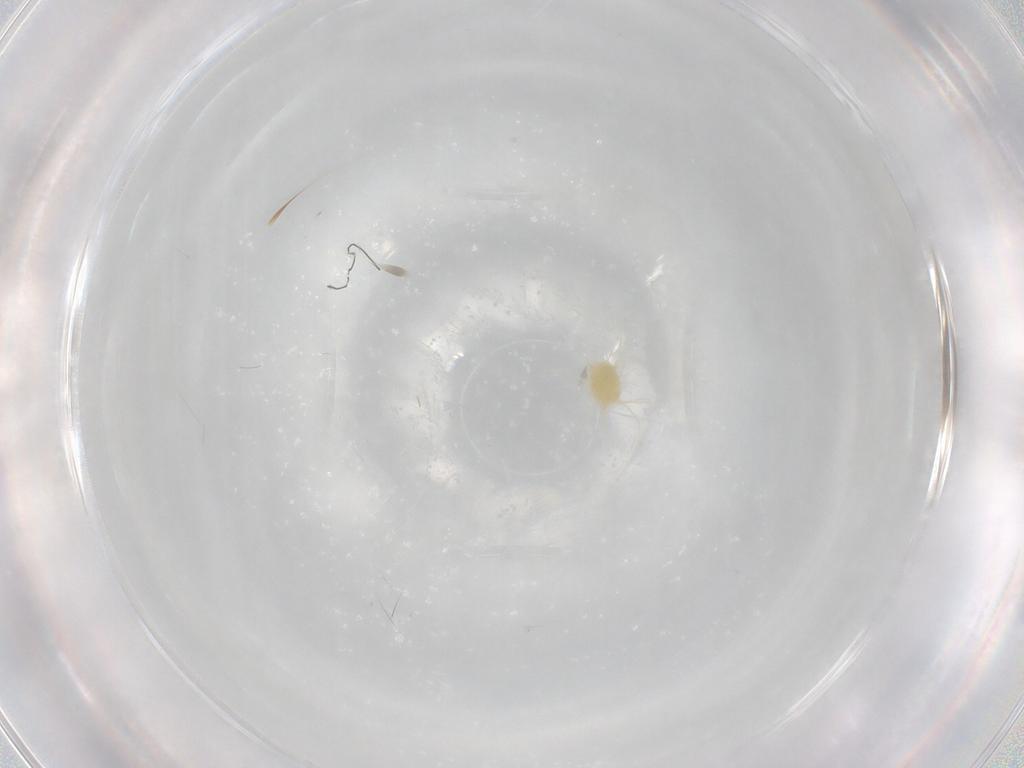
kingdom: Animalia
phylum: Arthropoda
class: Arachnida
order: Trombidiformes
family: Tetranychidae
